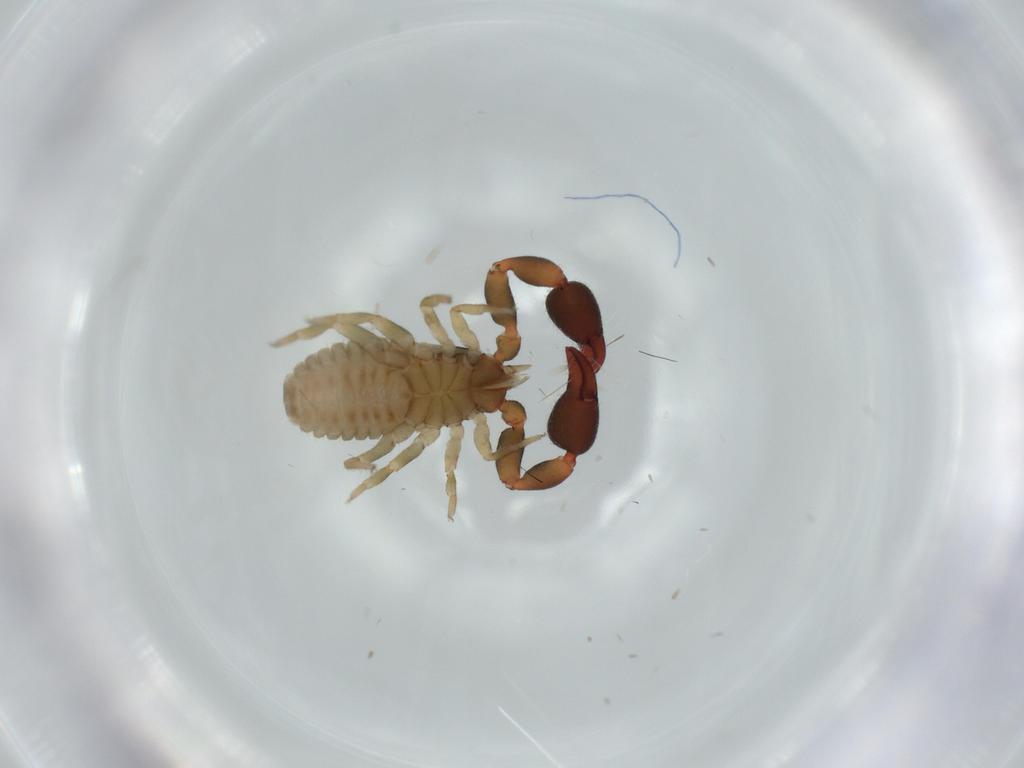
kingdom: Animalia
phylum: Arthropoda
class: Arachnida
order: Pseudoscorpiones
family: Chernetidae
